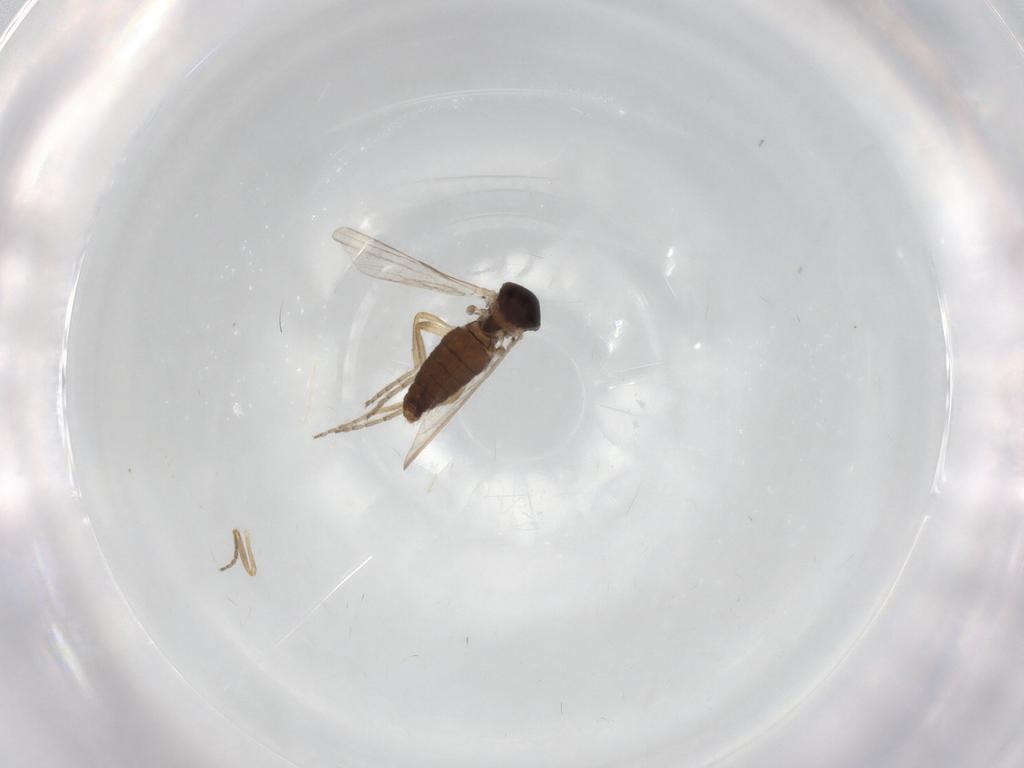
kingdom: Animalia
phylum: Arthropoda
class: Insecta
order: Diptera
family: Ceratopogonidae
